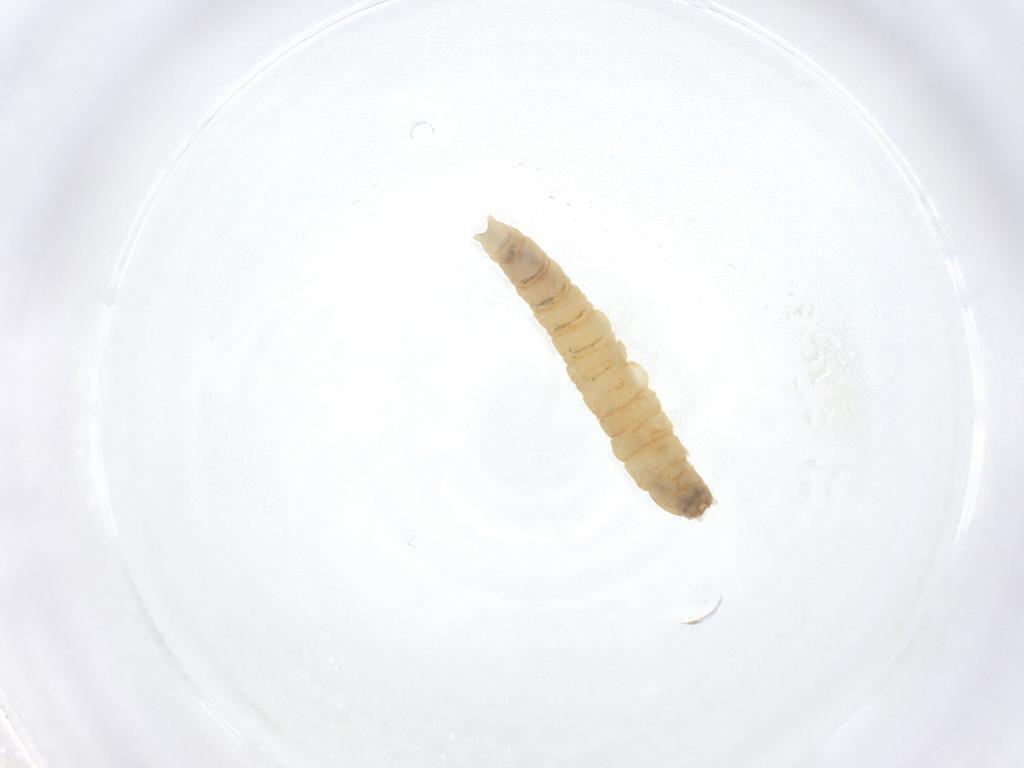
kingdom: Animalia
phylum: Arthropoda
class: Insecta
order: Diptera
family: Pediciidae
